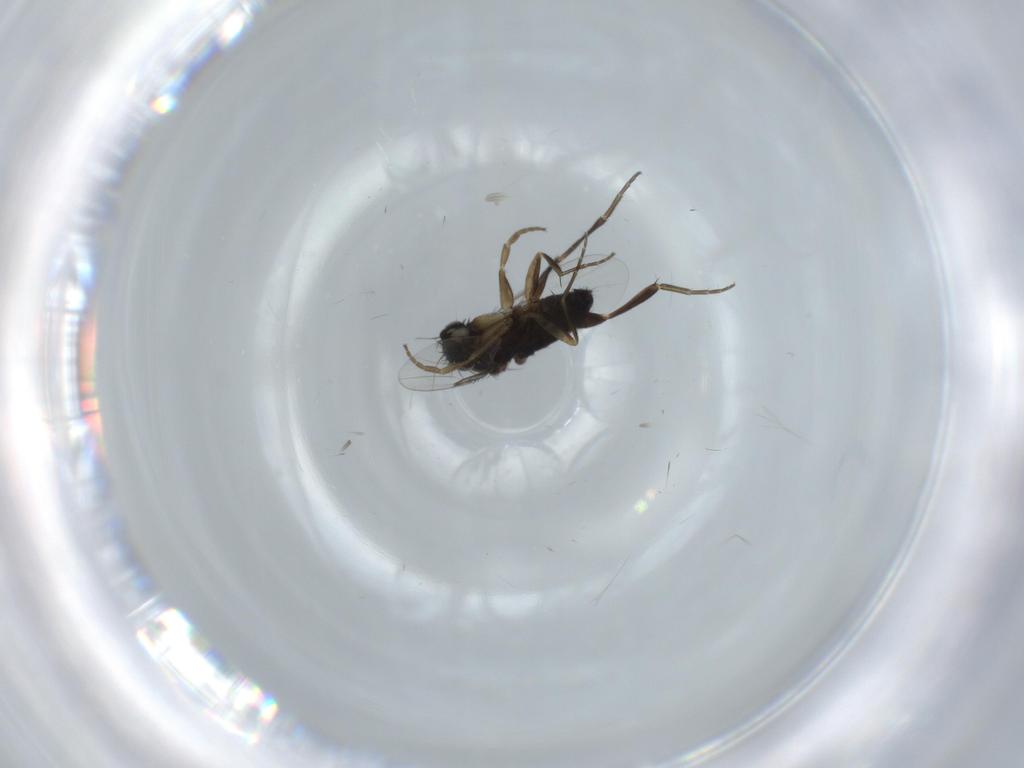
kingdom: Animalia
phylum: Arthropoda
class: Insecta
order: Diptera
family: Phoridae
